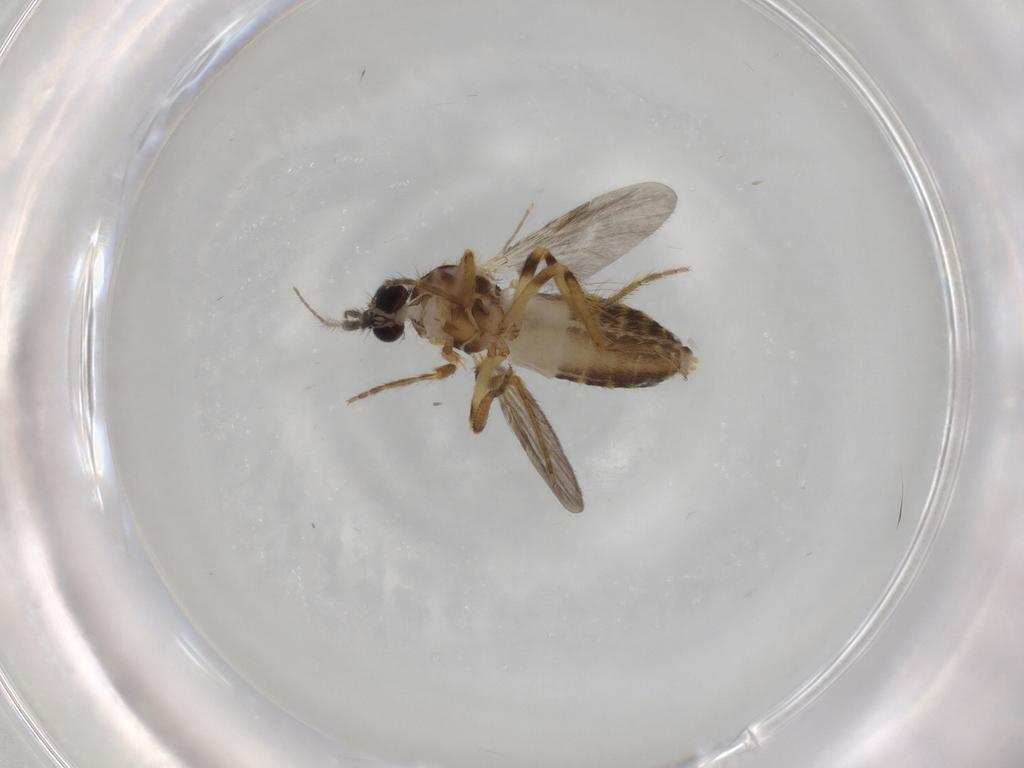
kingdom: Animalia
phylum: Arthropoda
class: Insecta
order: Diptera
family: Ceratopogonidae
